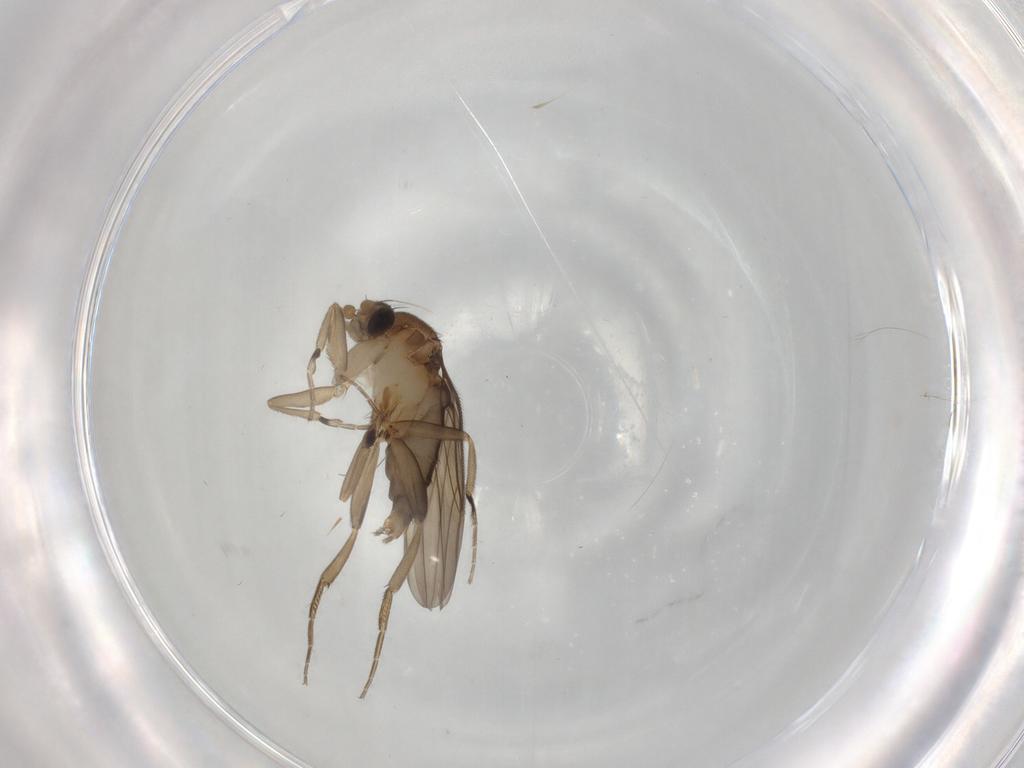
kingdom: Animalia
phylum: Arthropoda
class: Insecta
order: Diptera
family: Phoridae
